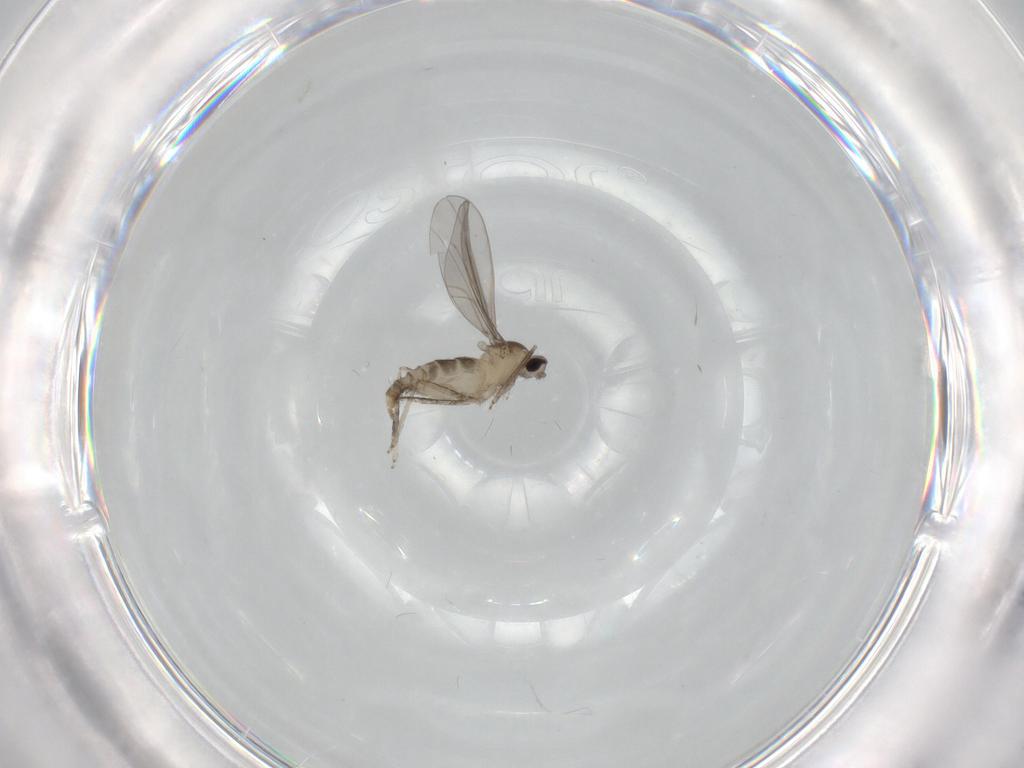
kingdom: Animalia
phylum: Arthropoda
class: Insecta
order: Diptera
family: Cecidomyiidae
